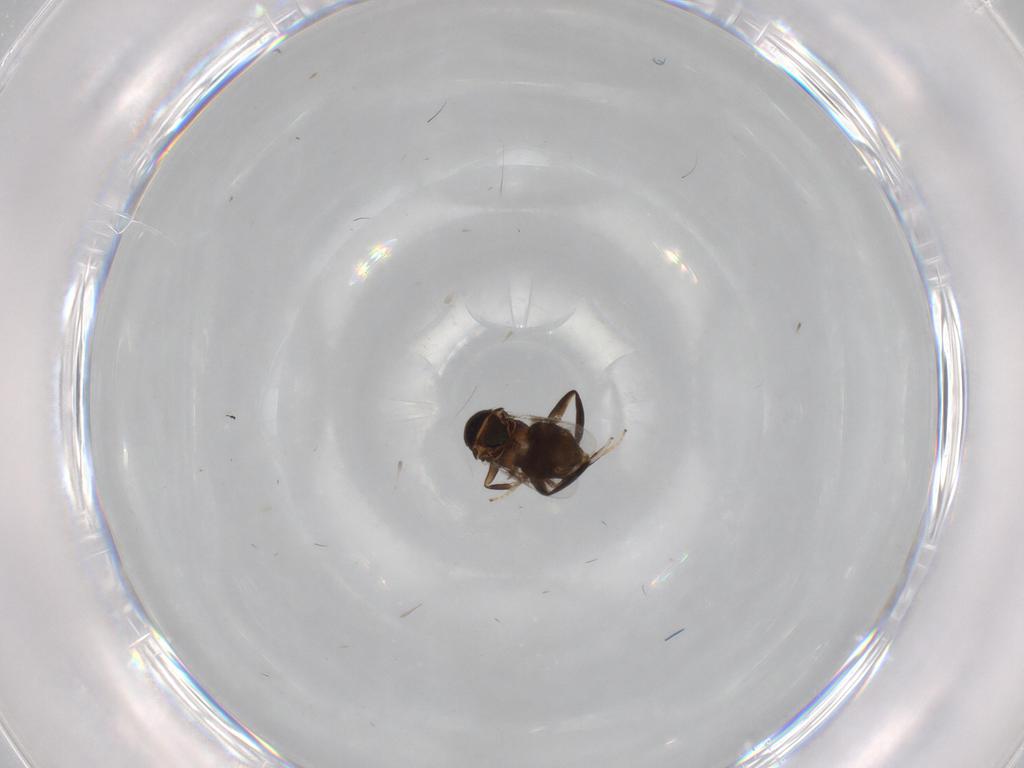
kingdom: Animalia
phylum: Arthropoda
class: Insecta
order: Hymenoptera
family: Encyrtidae
